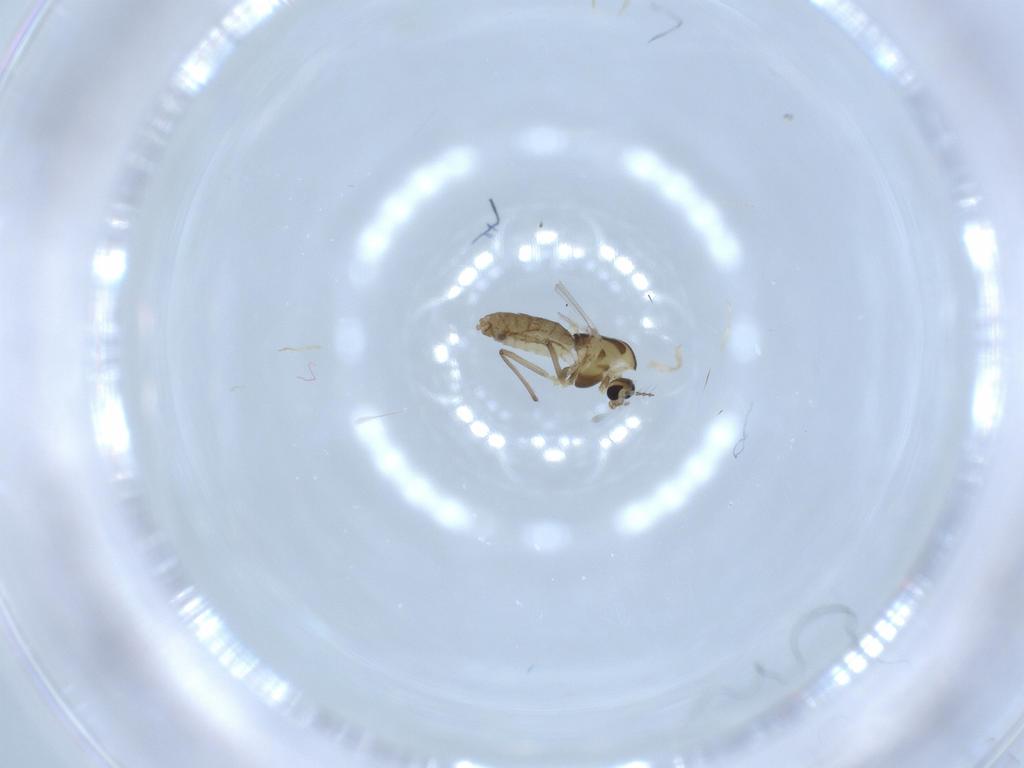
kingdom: Animalia
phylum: Arthropoda
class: Insecta
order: Diptera
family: Chironomidae
